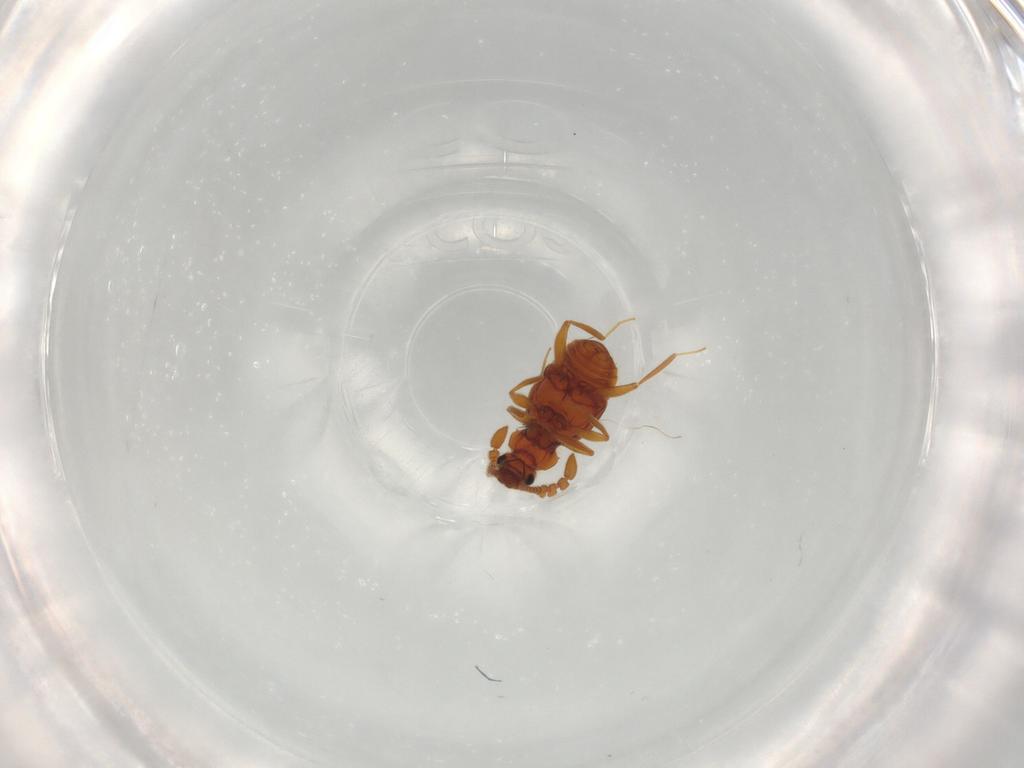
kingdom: Animalia
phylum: Arthropoda
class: Insecta
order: Coleoptera
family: Staphylinidae
